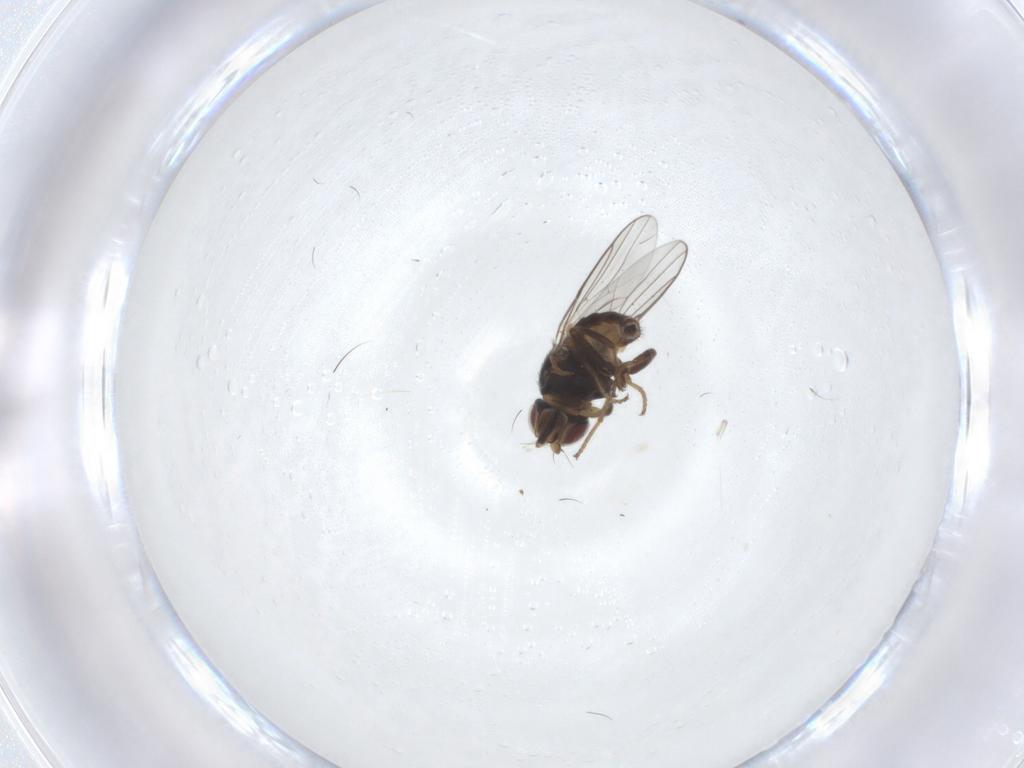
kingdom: Animalia
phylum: Arthropoda
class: Insecta
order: Diptera
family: Chloropidae
